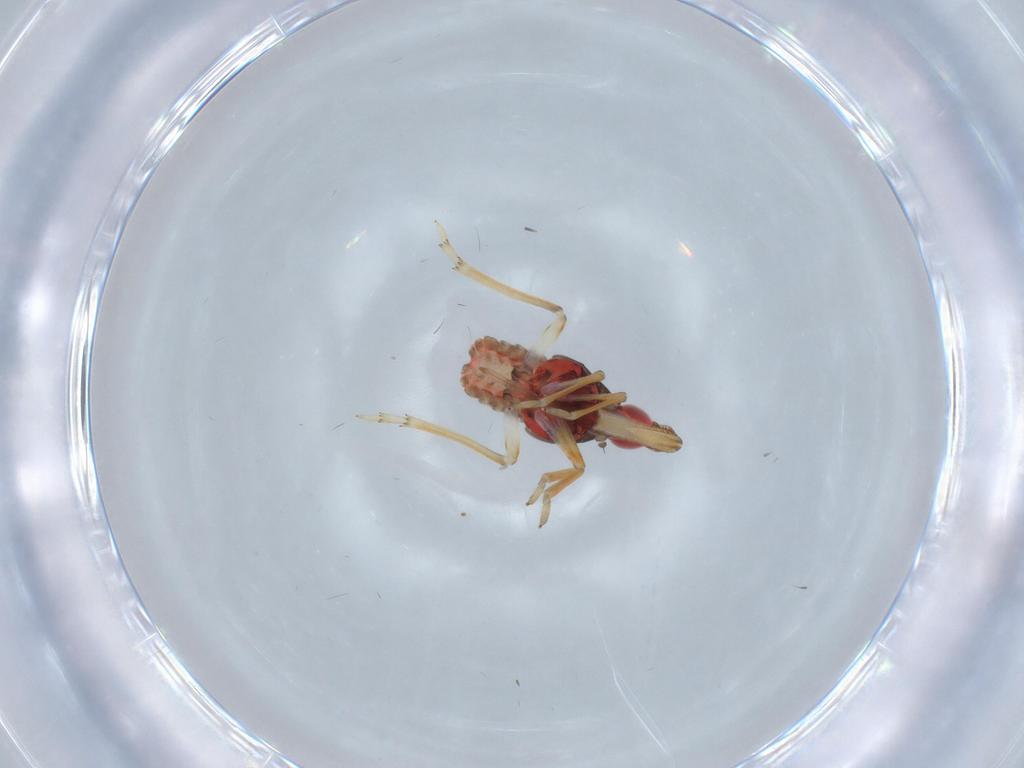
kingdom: Animalia
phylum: Arthropoda
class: Insecta
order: Hemiptera
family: Fulgoroidea_incertae_sedis
